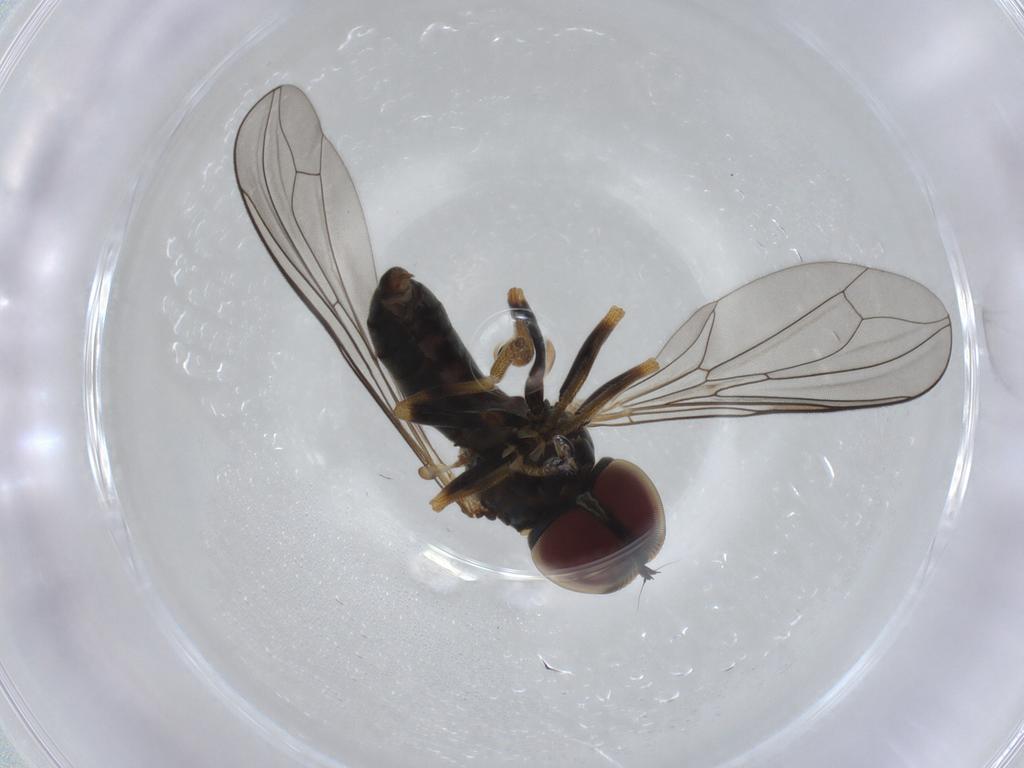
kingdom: Animalia
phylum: Arthropoda
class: Insecta
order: Diptera
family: Pipunculidae
